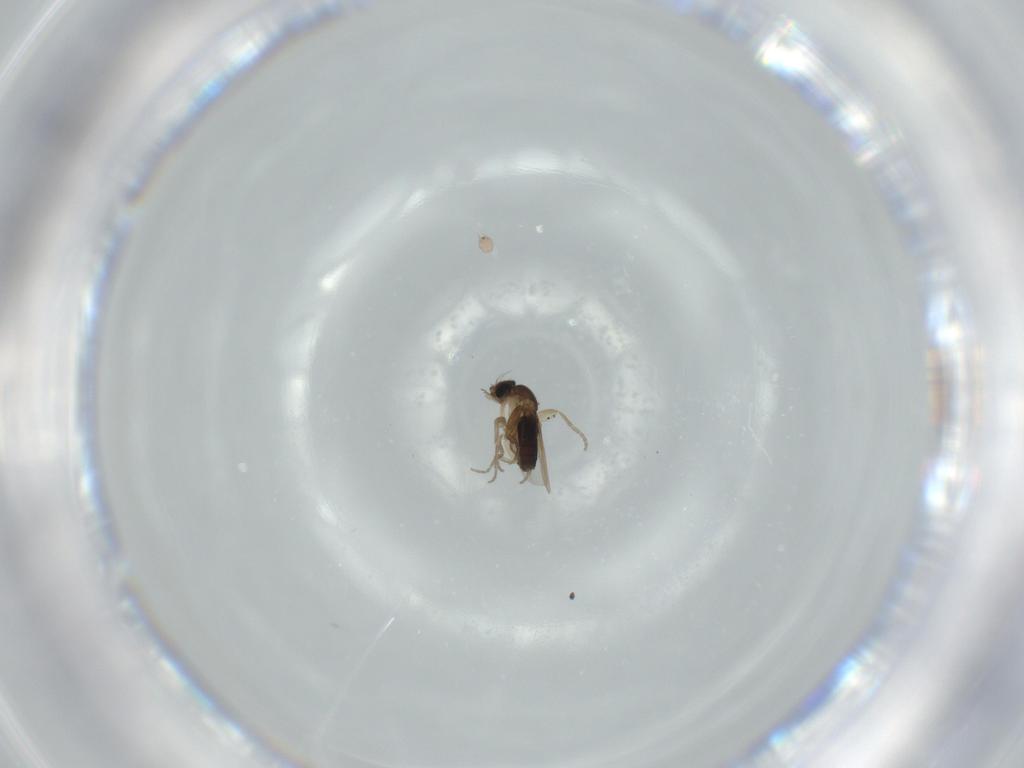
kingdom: Animalia
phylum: Arthropoda
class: Insecta
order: Diptera
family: Phoridae
